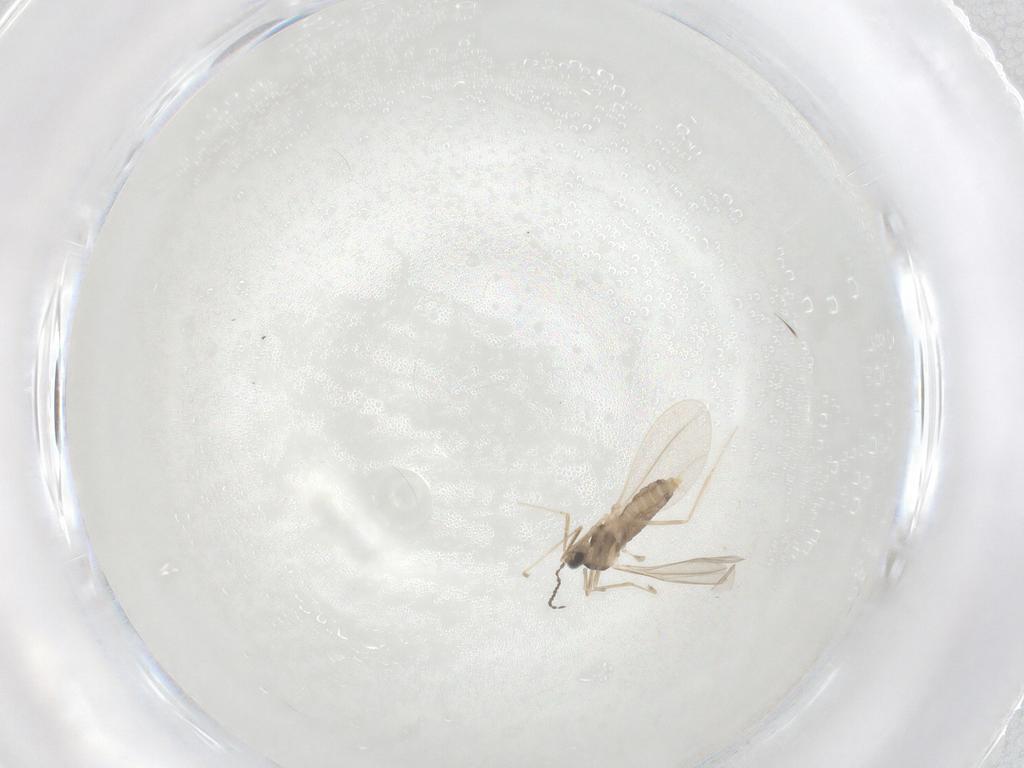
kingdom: Animalia
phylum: Arthropoda
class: Insecta
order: Diptera
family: Cecidomyiidae
